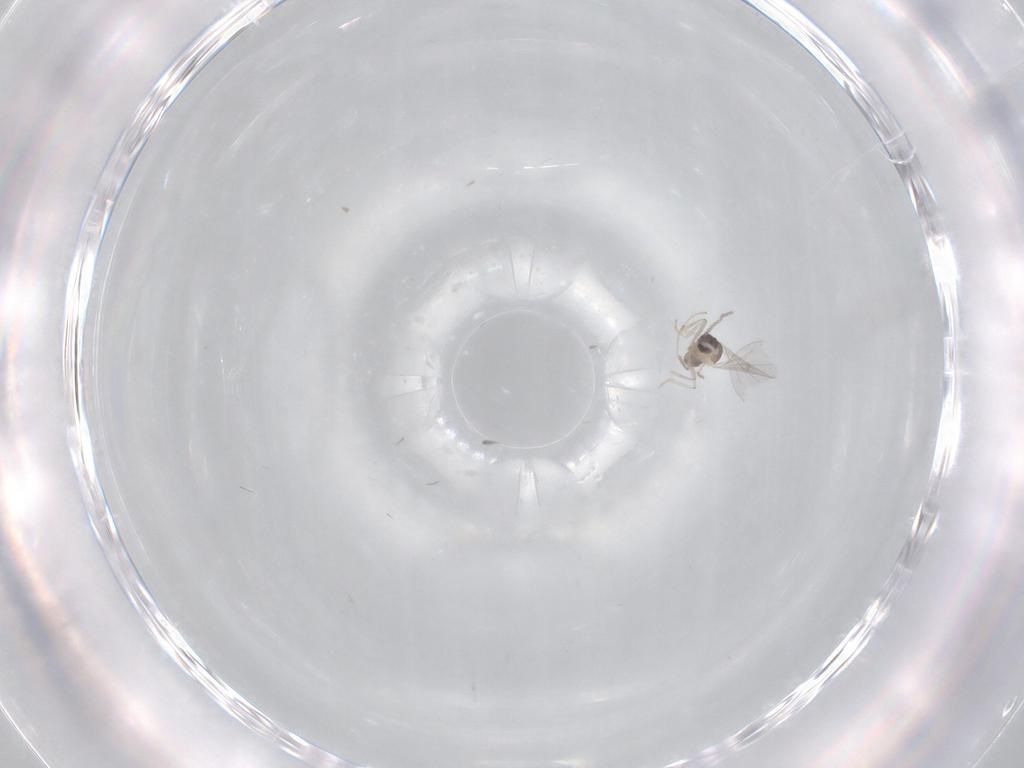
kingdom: Animalia
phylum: Arthropoda
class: Insecta
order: Diptera
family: Cecidomyiidae
